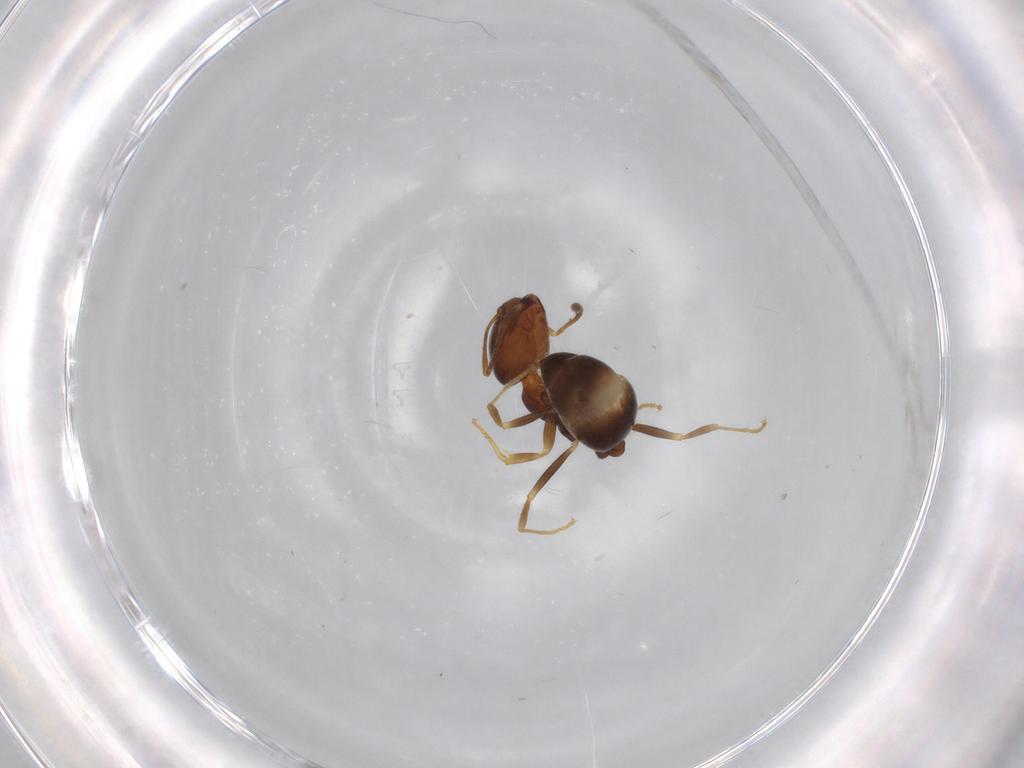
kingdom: Animalia
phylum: Arthropoda
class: Insecta
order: Hymenoptera
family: Formicidae
